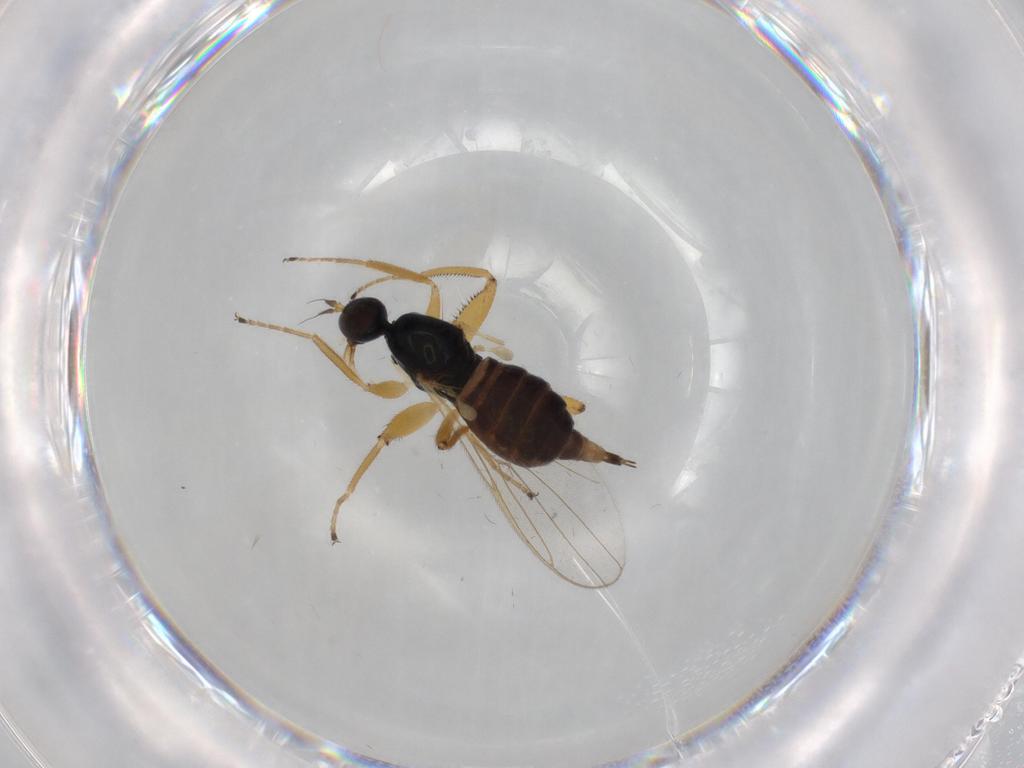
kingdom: Animalia
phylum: Arthropoda
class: Insecta
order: Diptera
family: Hybotidae
